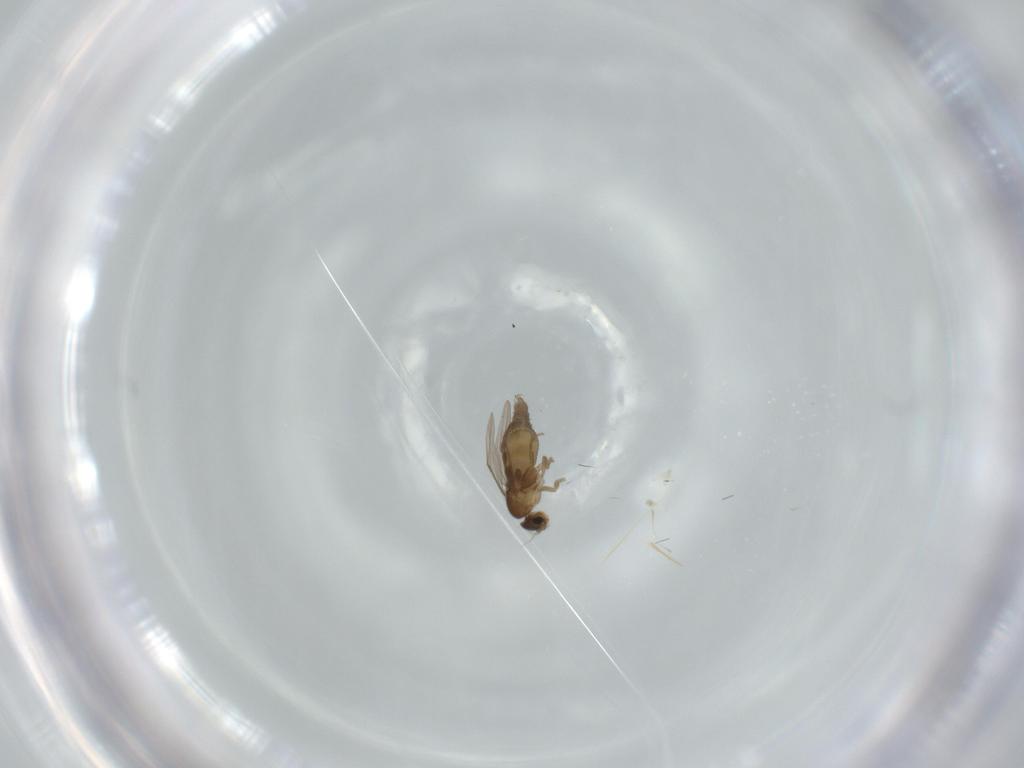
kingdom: Animalia
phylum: Arthropoda
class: Insecta
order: Diptera
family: Phoridae
